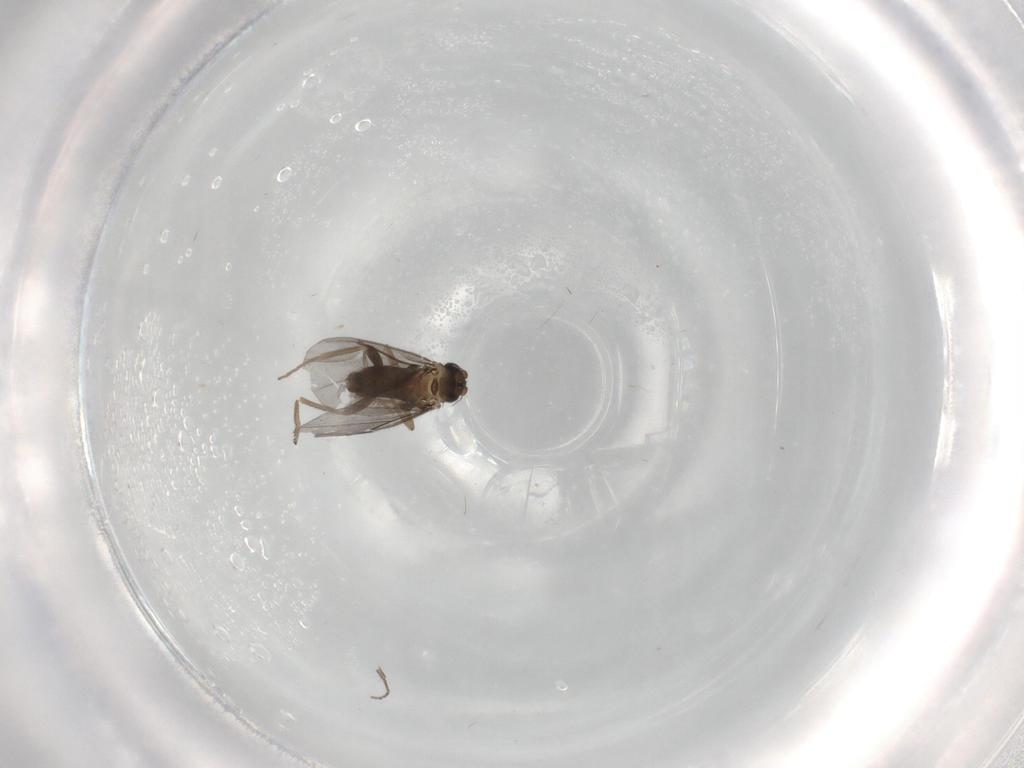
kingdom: Animalia
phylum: Arthropoda
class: Insecta
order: Diptera
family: Phoridae
